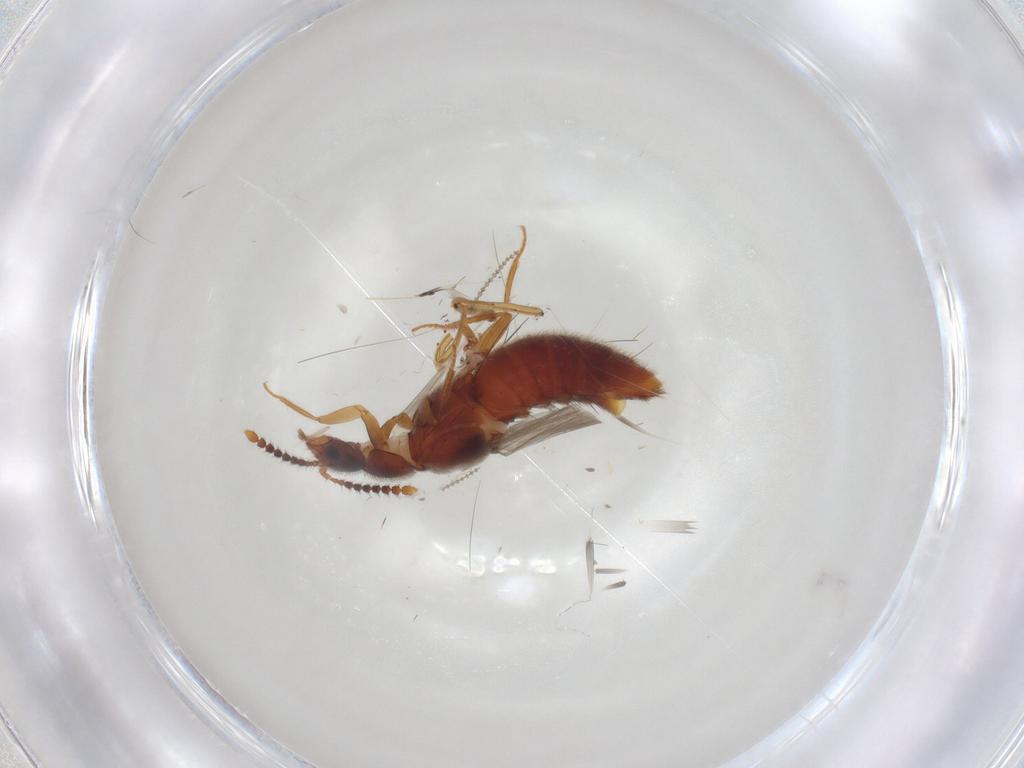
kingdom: Animalia
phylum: Arthropoda
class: Insecta
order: Coleoptera
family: Staphylinidae
